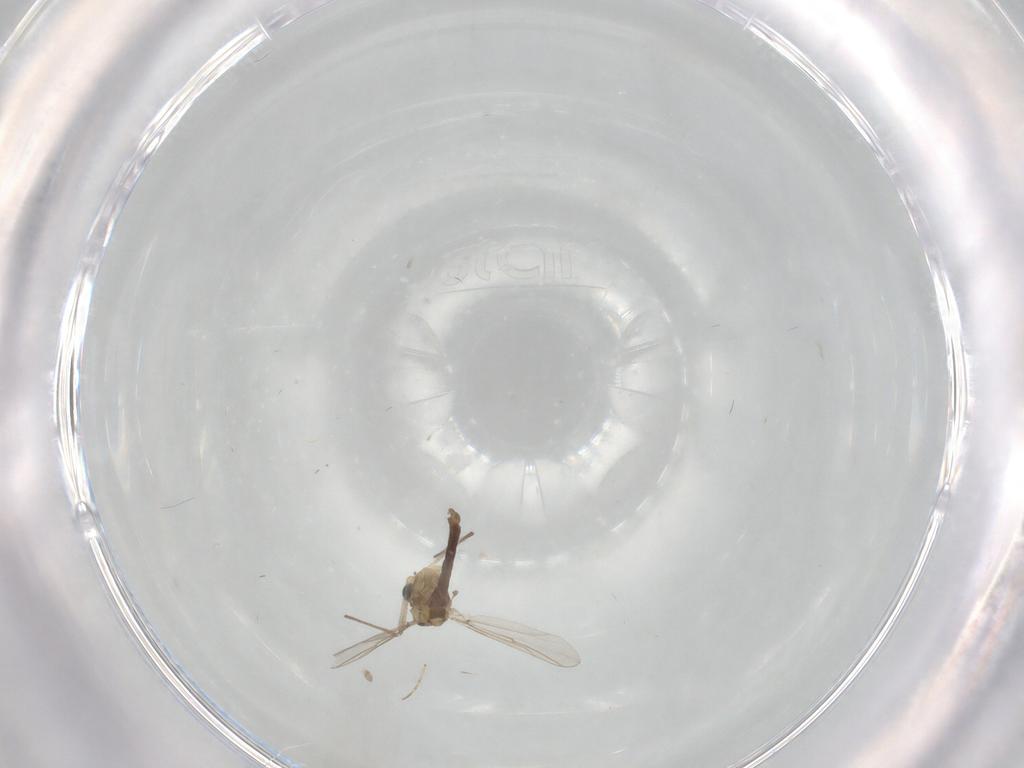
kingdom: Animalia
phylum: Arthropoda
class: Insecta
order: Diptera
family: Chironomidae
